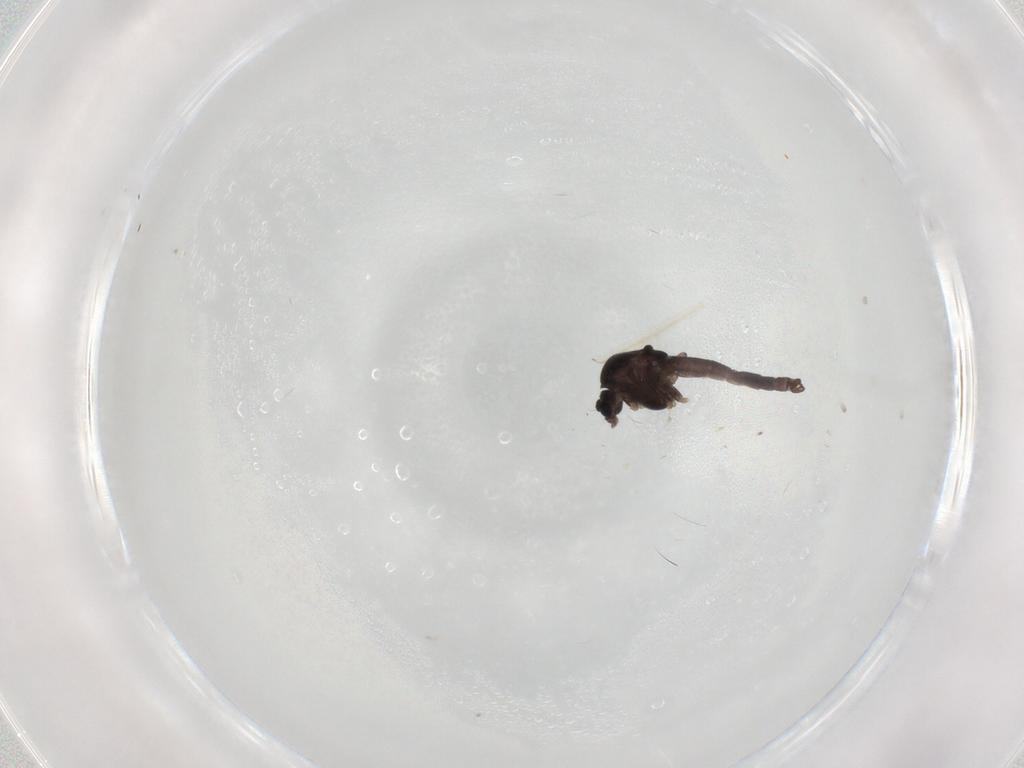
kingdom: Animalia
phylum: Arthropoda
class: Insecta
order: Diptera
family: Chironomidae
